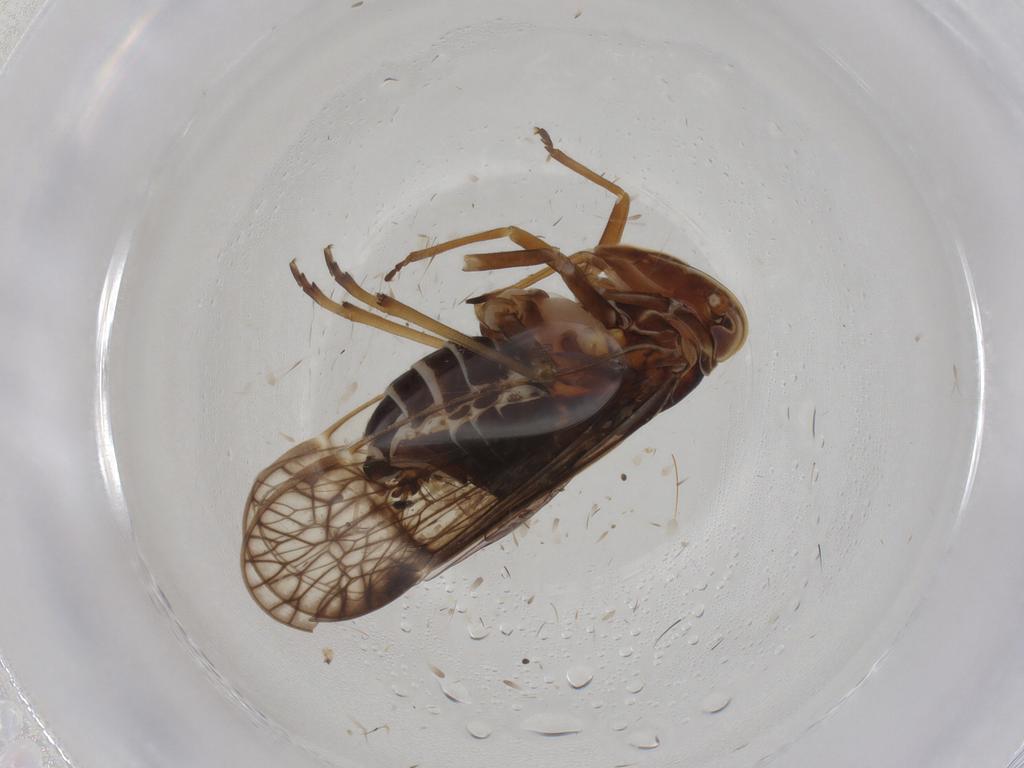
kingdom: Animalia
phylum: Arthropoda
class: Insecta
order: Hemiptera
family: Kinnaridae
